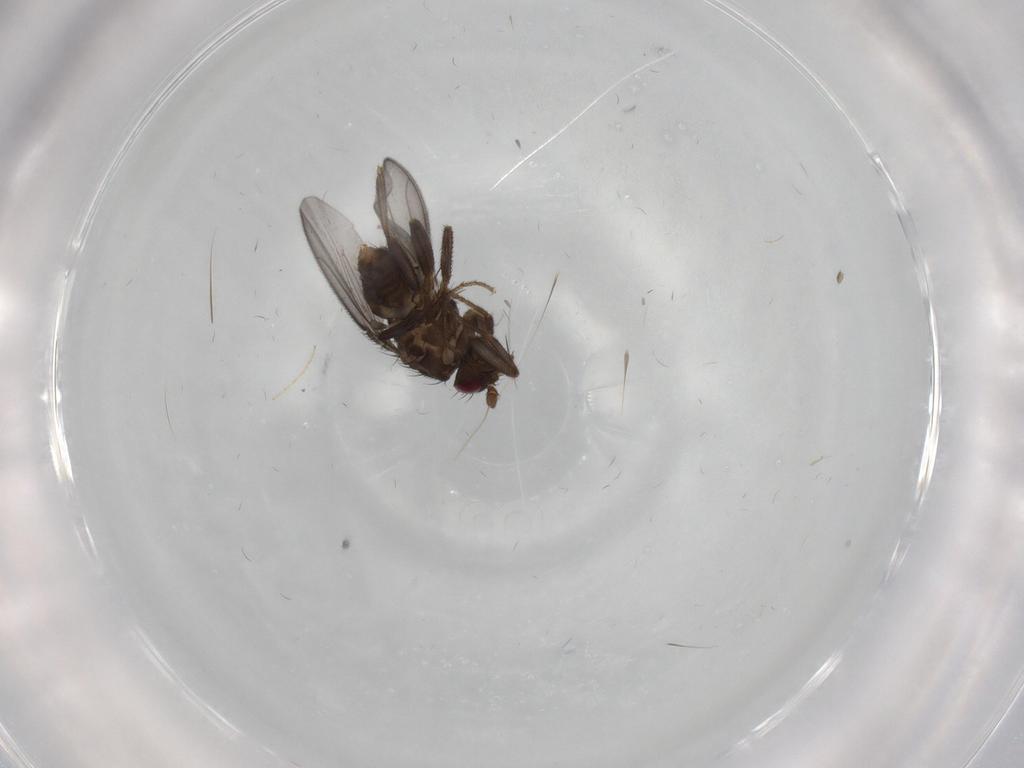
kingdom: Animalia
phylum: Arthropoda
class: Insecta
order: Diptera
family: Sphaeroceridae
